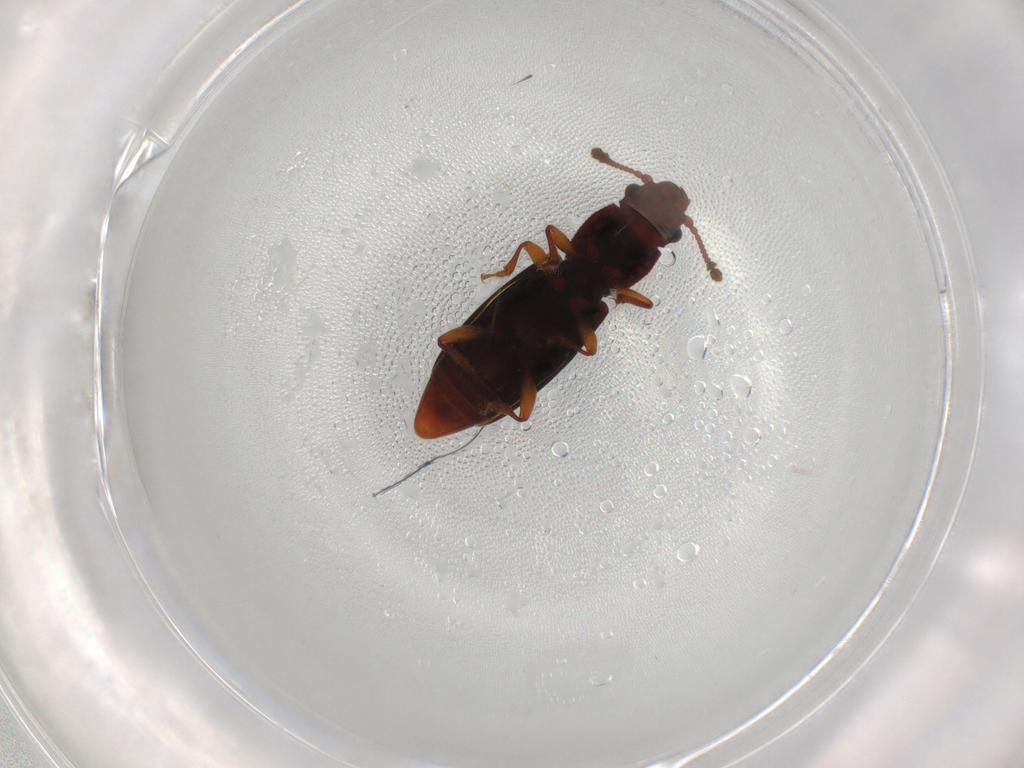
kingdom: Animalia
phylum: Arthropoda
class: Insecta
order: Coleoptera
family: Monotomidae
